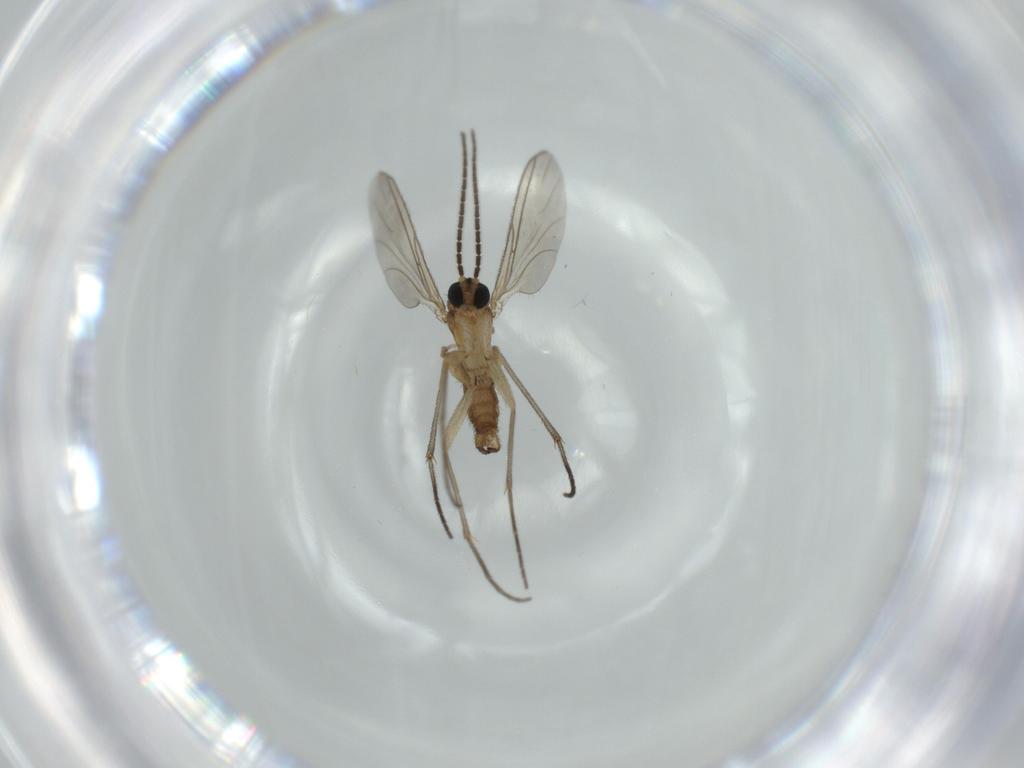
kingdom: Animalia
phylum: Arthropoda
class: Insecta
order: Diptera
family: Sciaridae
